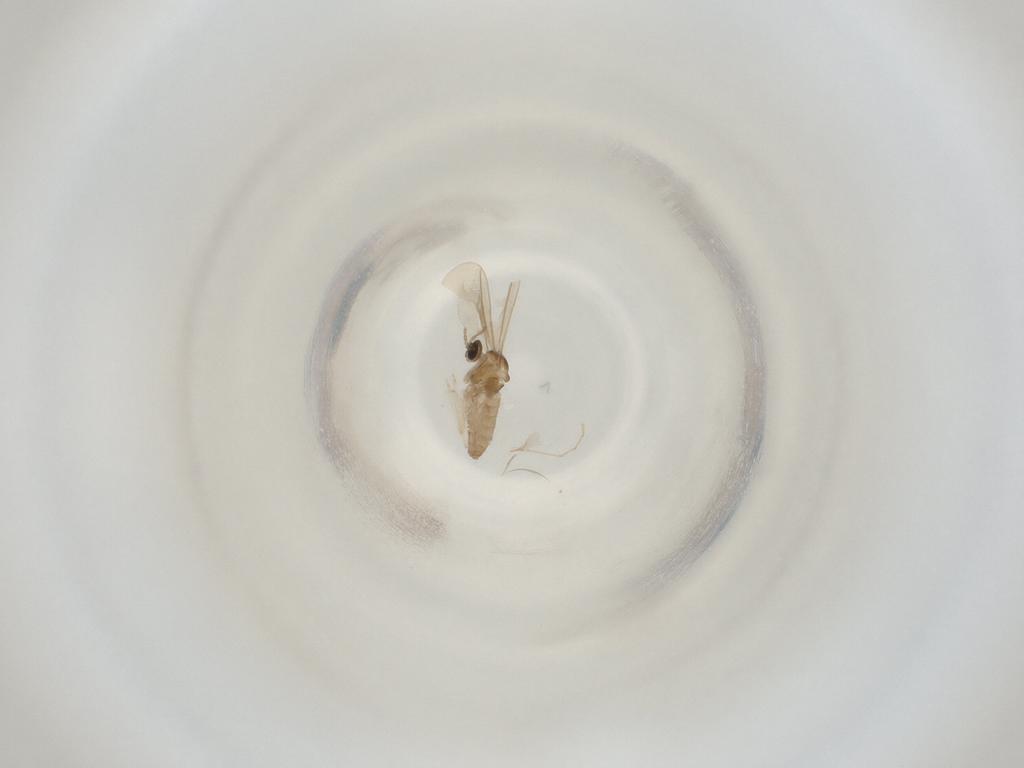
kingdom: Animalia
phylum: Arthropoda
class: Insecta
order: Diptera
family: Cecidomyiidae
